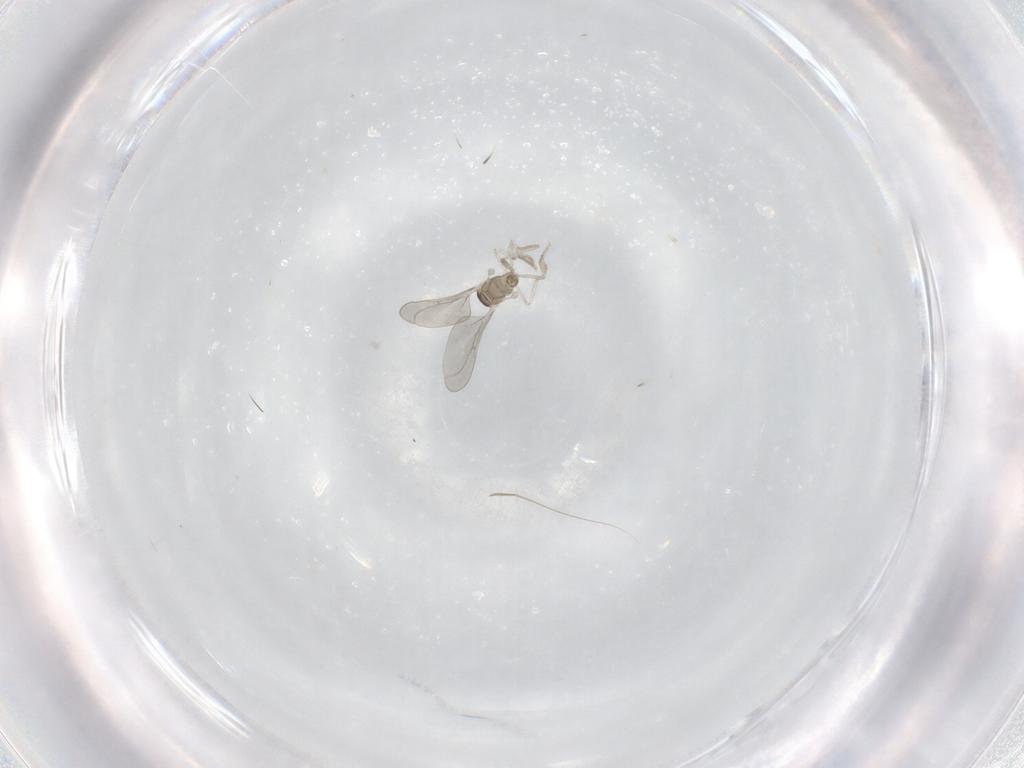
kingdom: Animalia
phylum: Arthropoda
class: Insecta
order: Diptera
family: Cecidomyiidae
